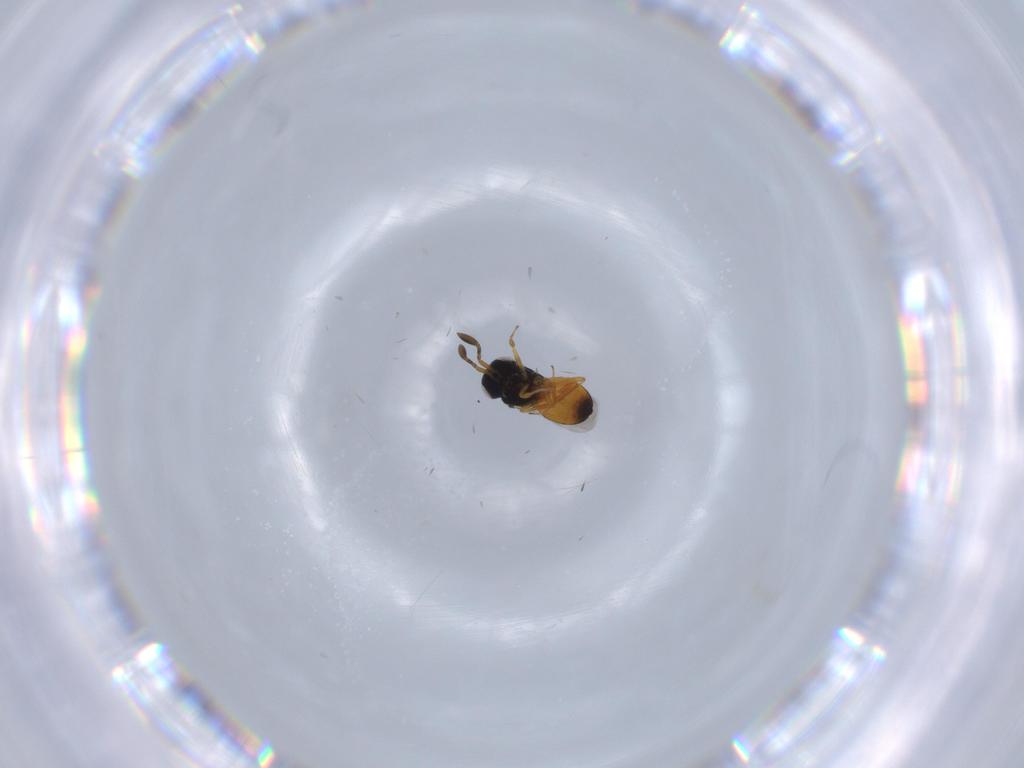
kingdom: Animalia
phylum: Arthropoda
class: Insecta
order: Hymenoptera
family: Scelionidae
